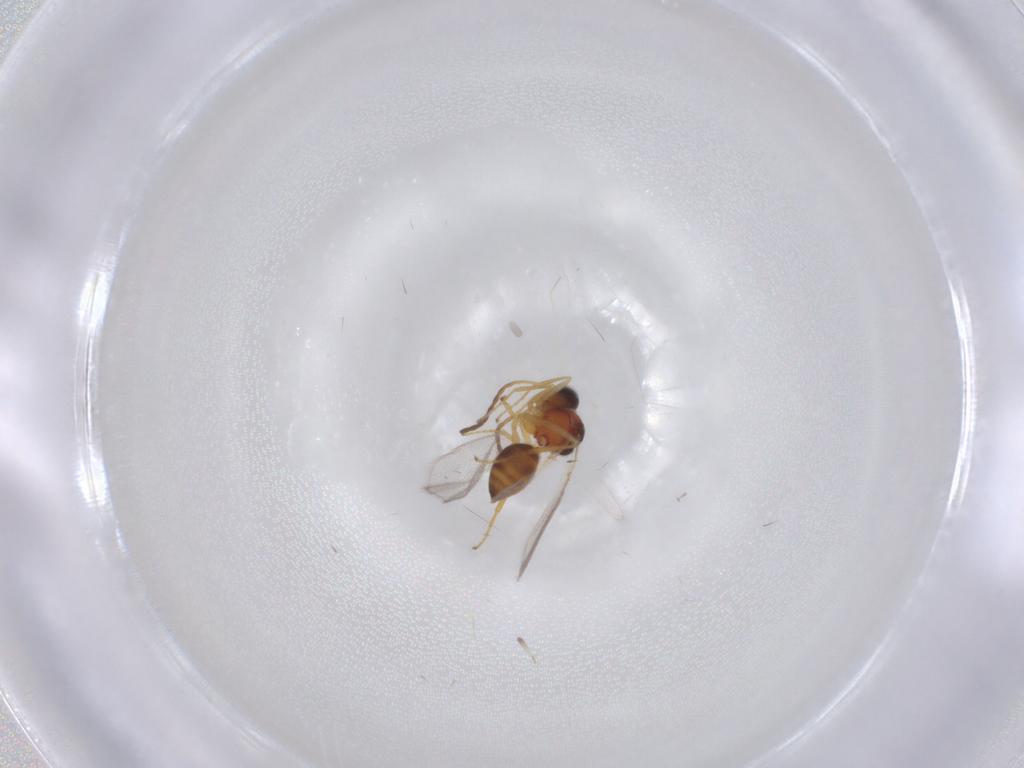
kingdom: Animalia
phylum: Arthropoda
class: Insecta
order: Hymenoptera
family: Figitidae
